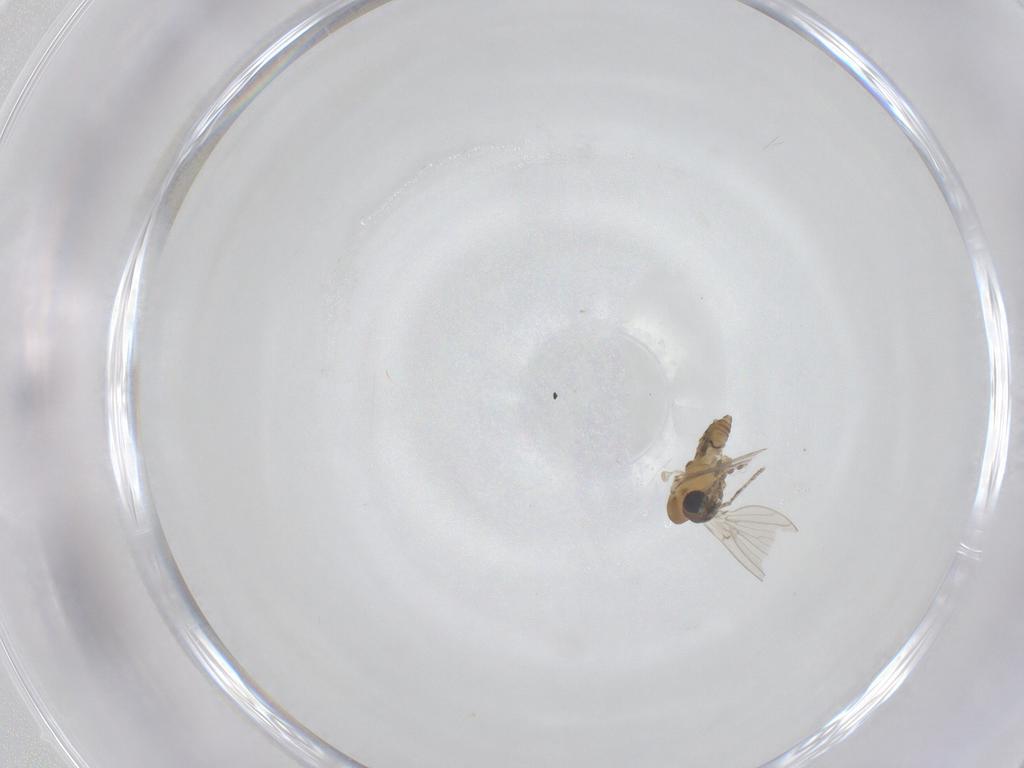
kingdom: Animalia
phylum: Arthropoda
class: Insecta
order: Diptera
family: Psychodidae
